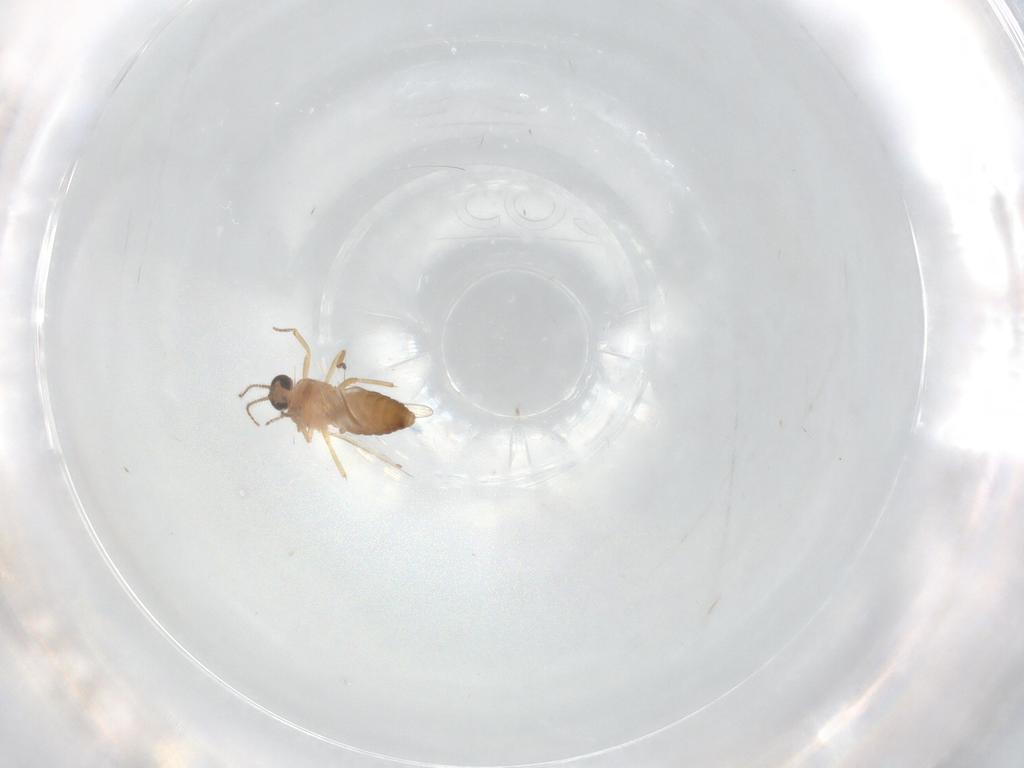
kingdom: Animalia
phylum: Arthropoda
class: Insecta
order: Diptera
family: Ceratopogonidae
